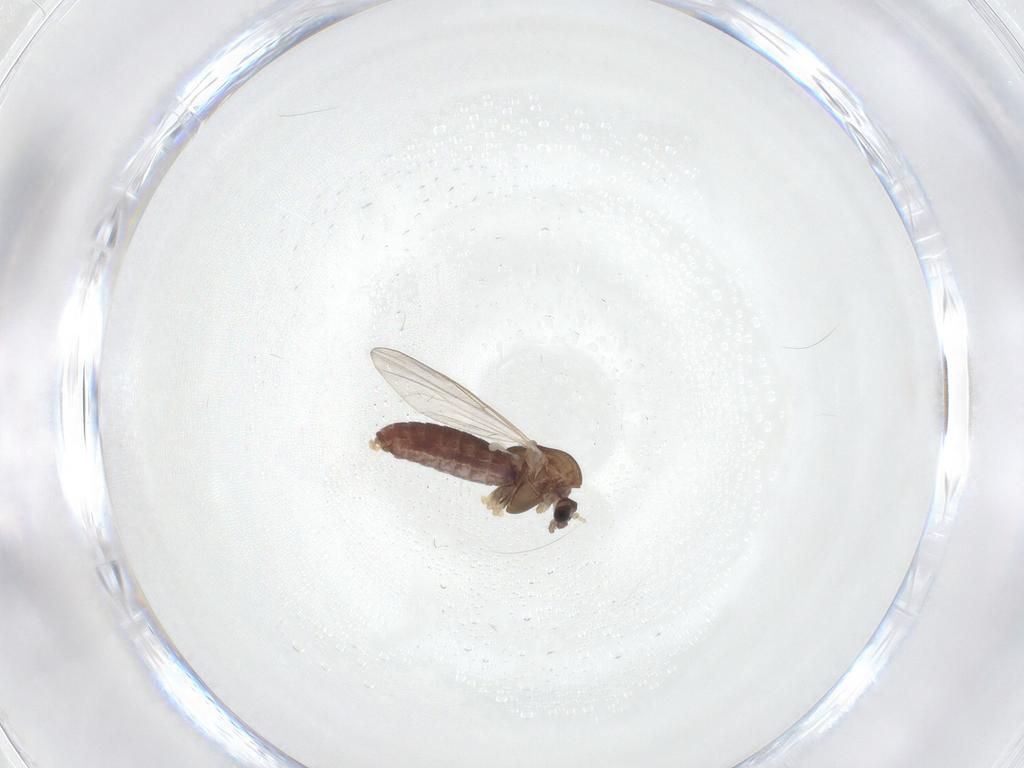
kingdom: Animalia
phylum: Arthropoda
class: Insecta
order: Diptera
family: Chironomidae
